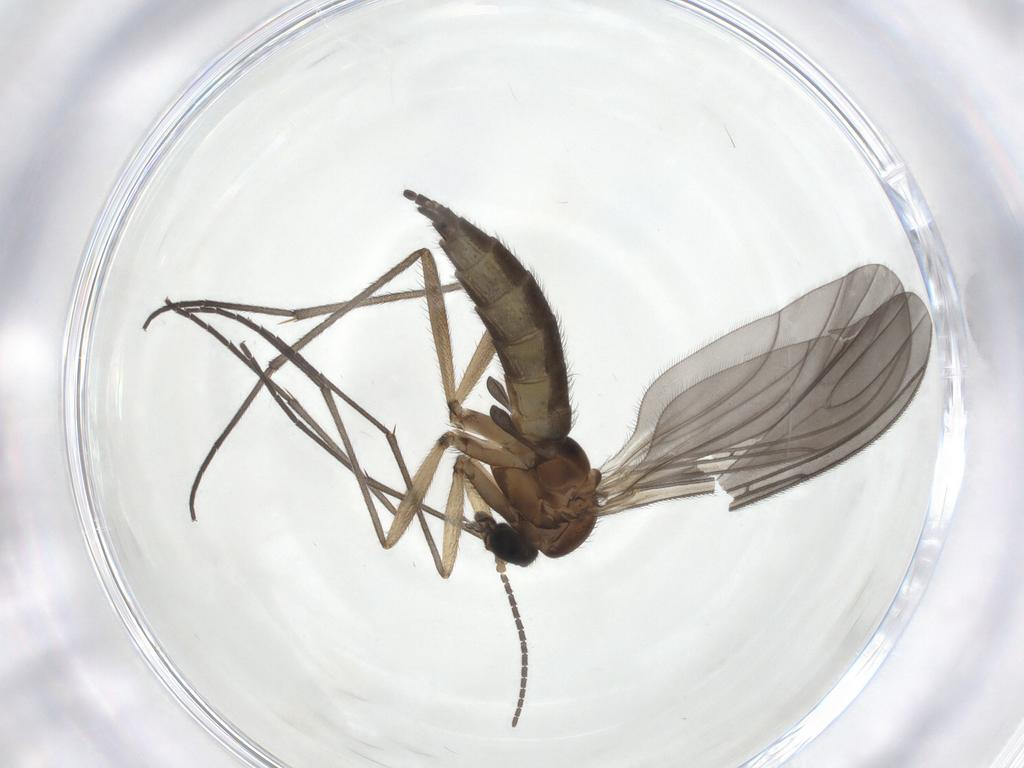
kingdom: Animalia
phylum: Arthropoda
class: Insecta
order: Diptera
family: Sciaridae
